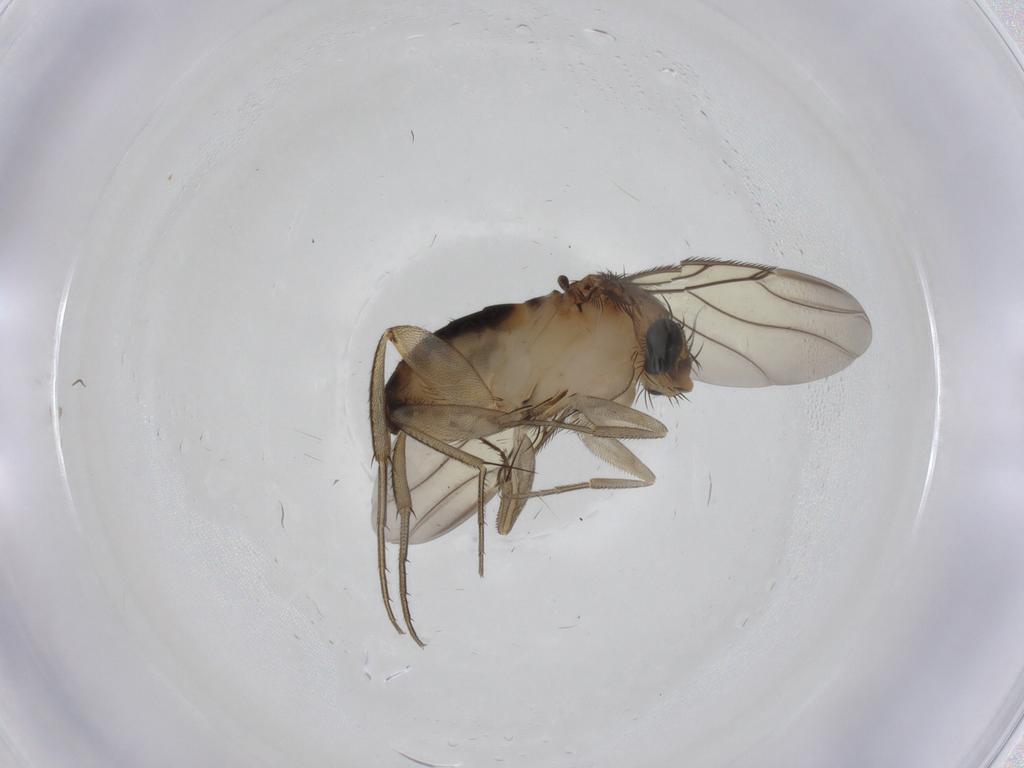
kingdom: Animalia
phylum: Arthropoda
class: Insecta
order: Diptera
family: Phoridae
